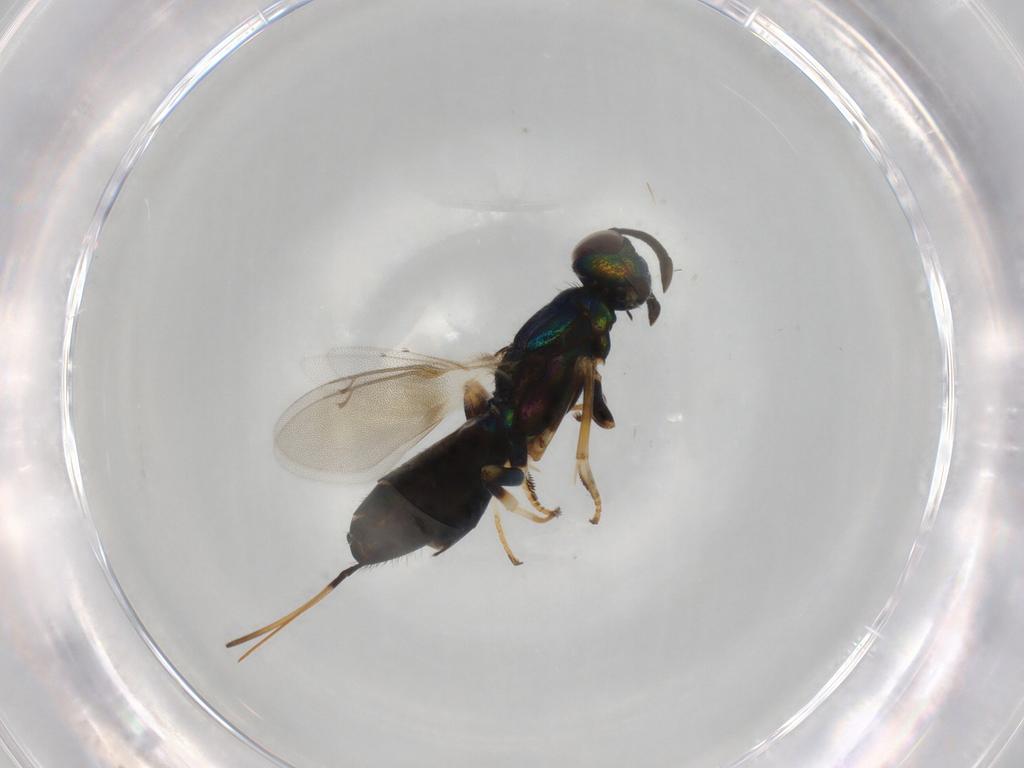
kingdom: Animalia
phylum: Arthropoda
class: Insecta
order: Hymenoptera
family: Eupelmidae
